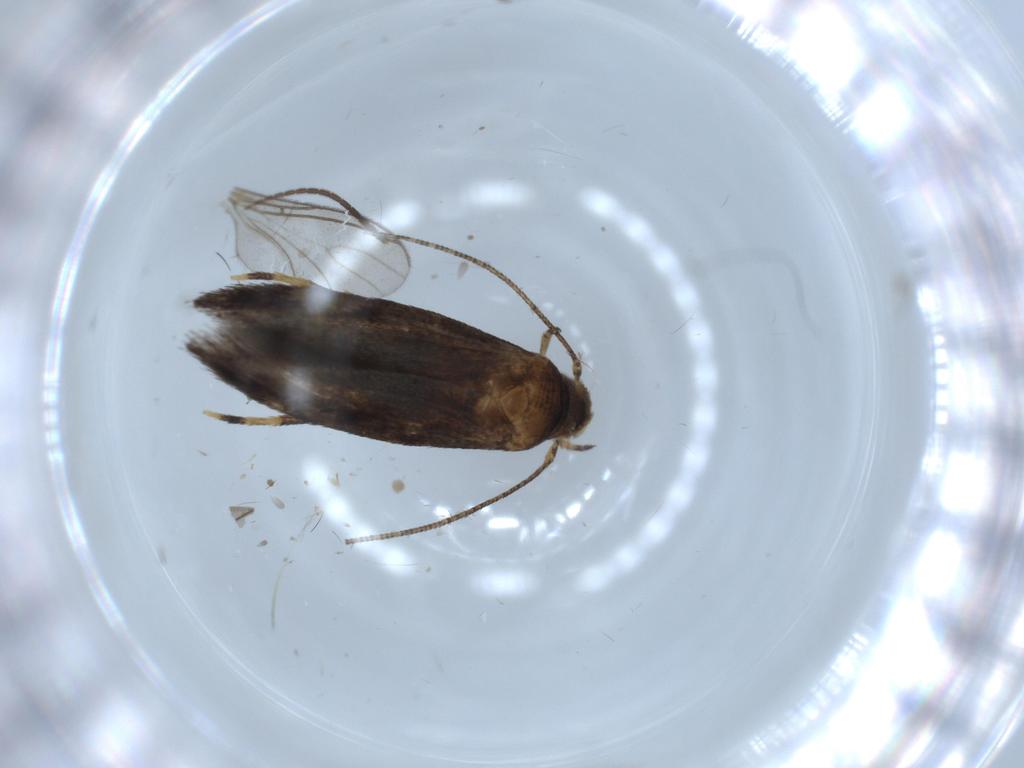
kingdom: Animalia
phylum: Arthropoda
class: Insecta
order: Lepidoptera
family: Momphidae
